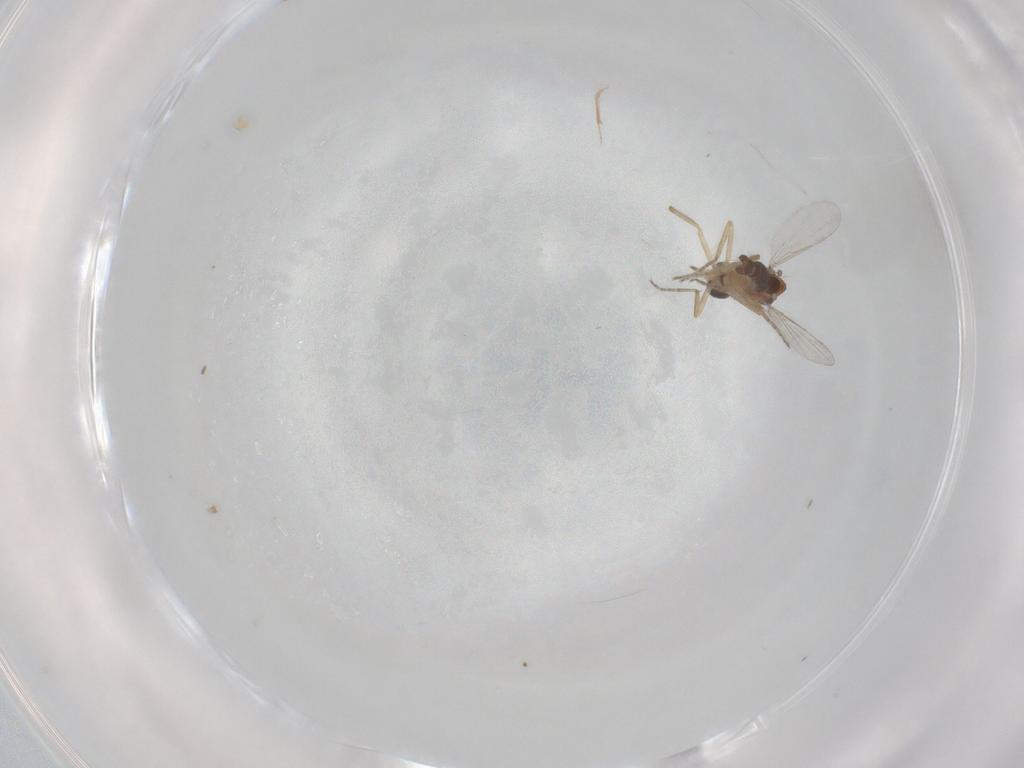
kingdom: Animalia
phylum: Arthropoda
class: Insecta
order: Diptera
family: Ceratopogonidae
